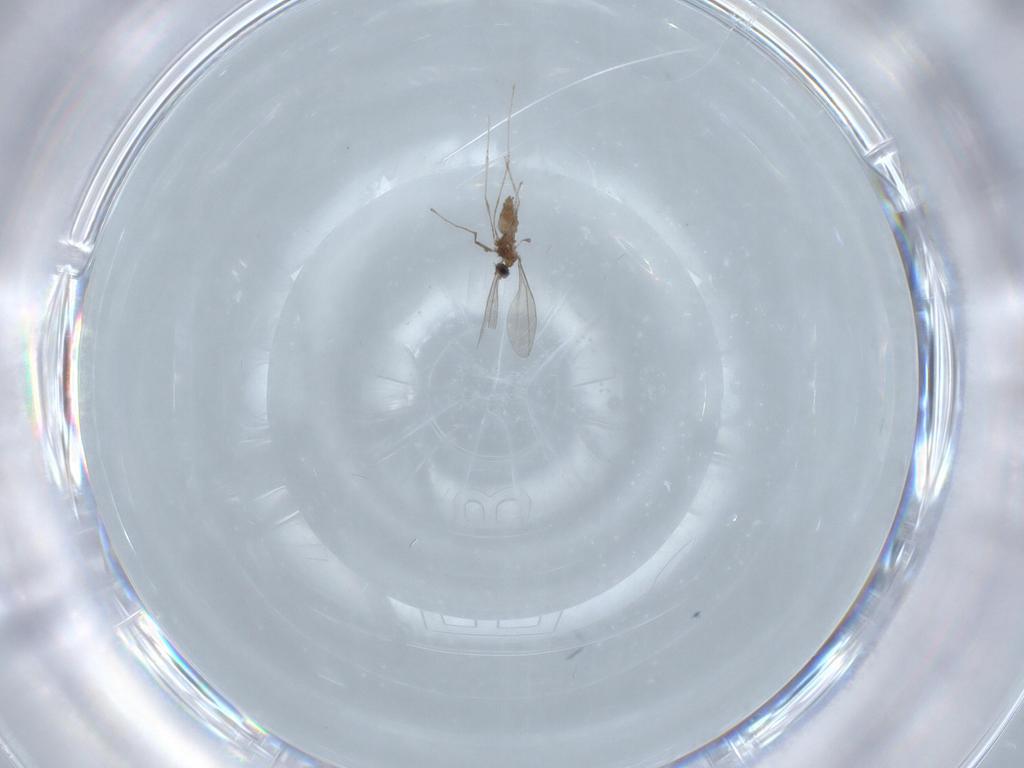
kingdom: Animalia
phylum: Arthropoda
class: Insecta
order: Diptera
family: Cecidomyiidae
